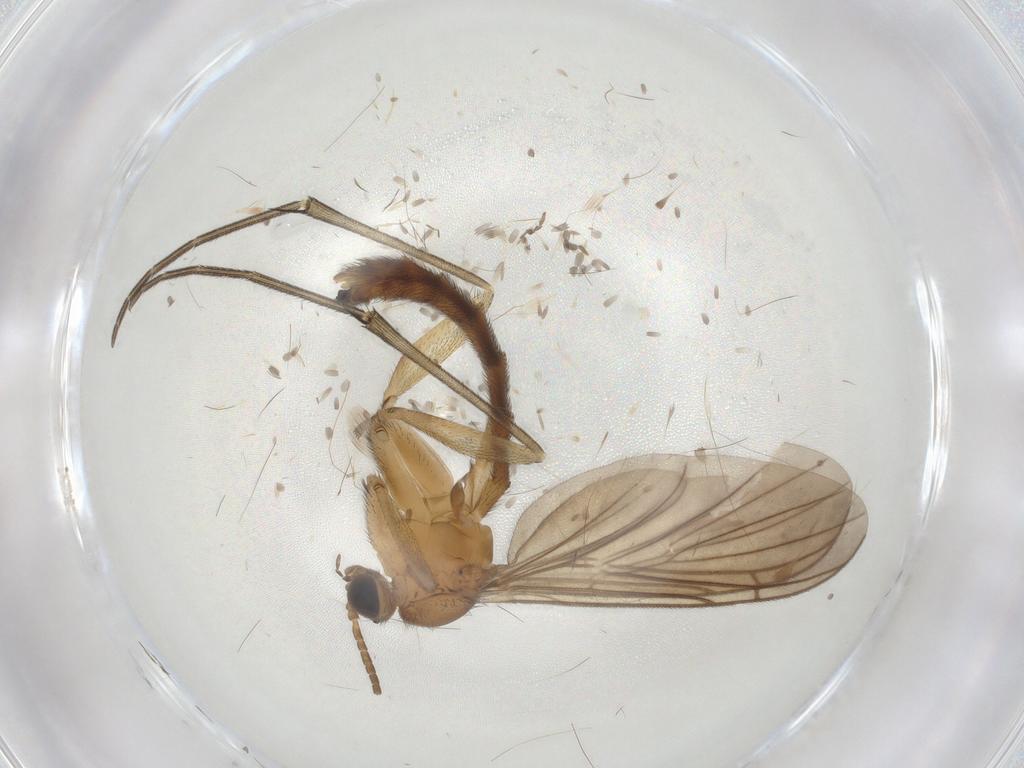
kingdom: Animalia
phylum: Arthropoda
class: Insecta
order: Diptera
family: Keroplatidae
